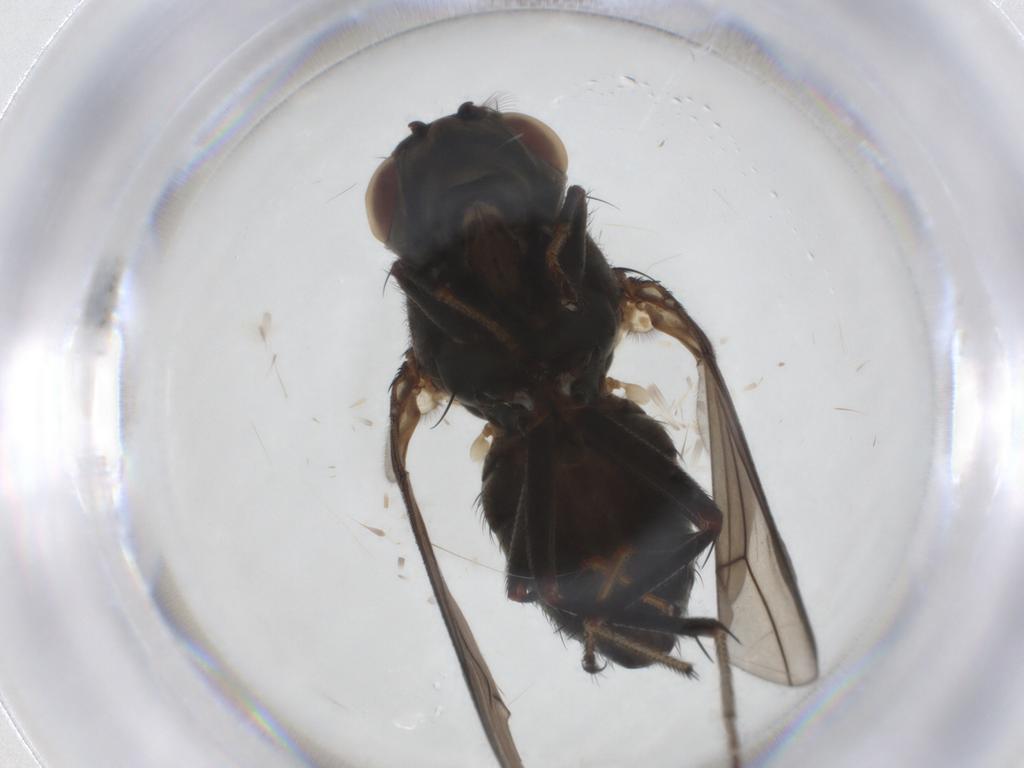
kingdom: Animalia
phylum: Arthropoda
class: Insecta
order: Diptera
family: Ephydridae
